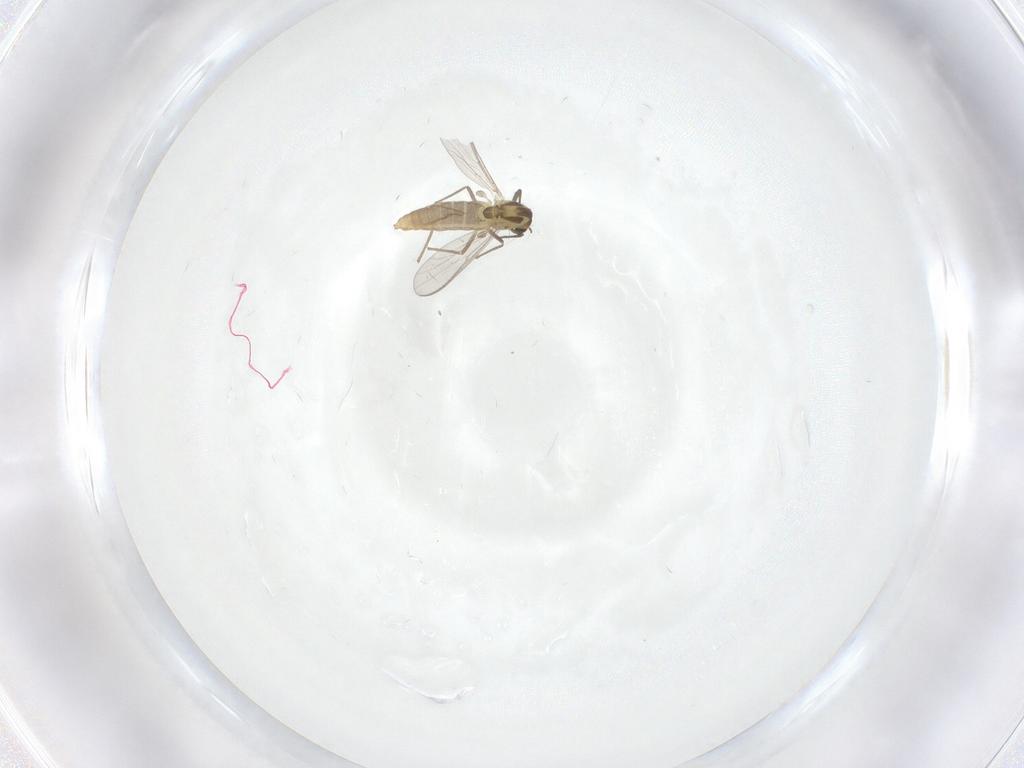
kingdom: Animalia
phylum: Arthropoda
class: Insecta
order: Diptera
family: Chironomidae
